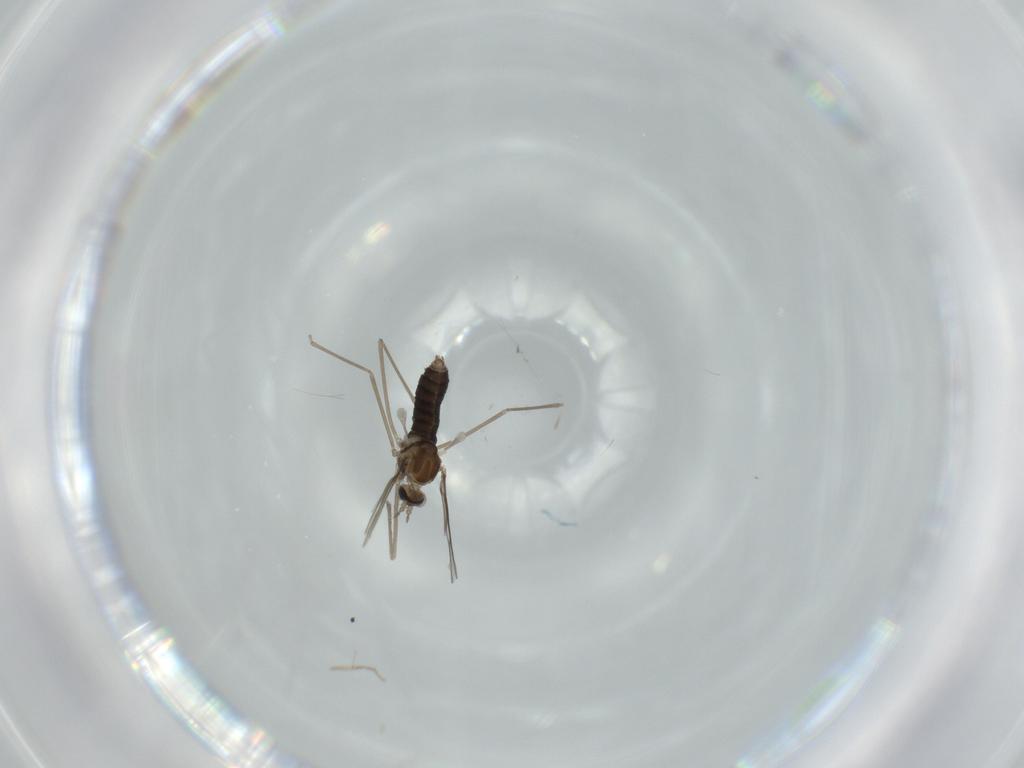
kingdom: Animalia
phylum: Arthropoda
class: Insecta
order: Diptera
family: Cecidomyiidae
